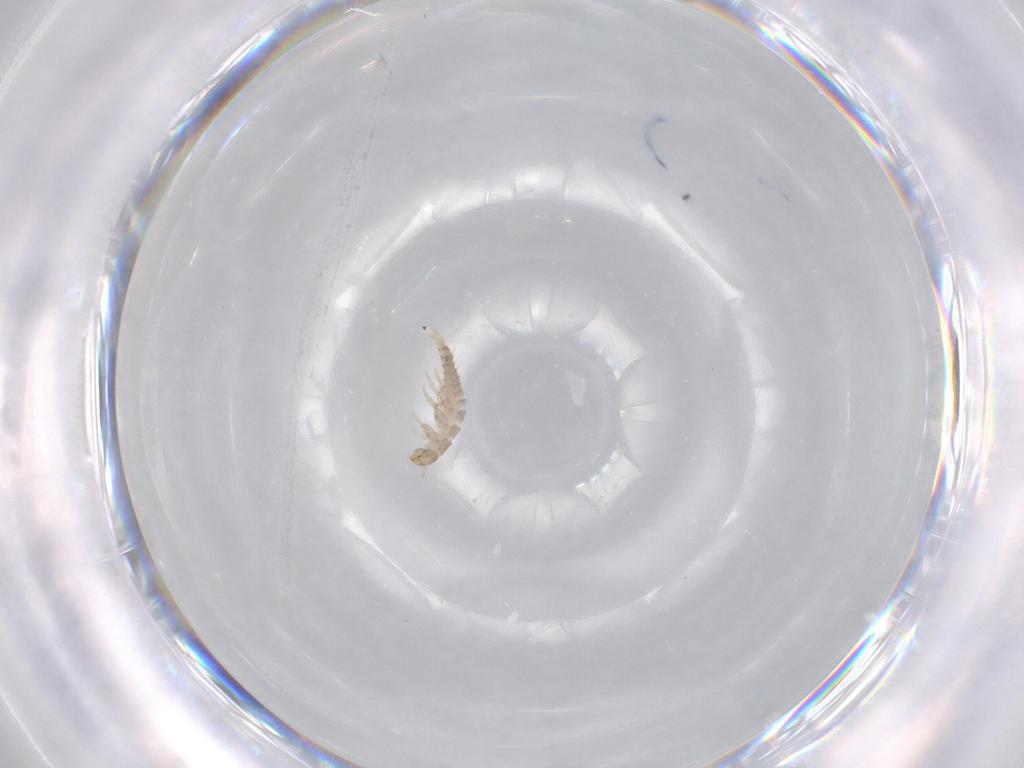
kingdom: Animalia
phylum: Arthropoda
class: Insecta
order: Coleoptera
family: Staphylinidae
